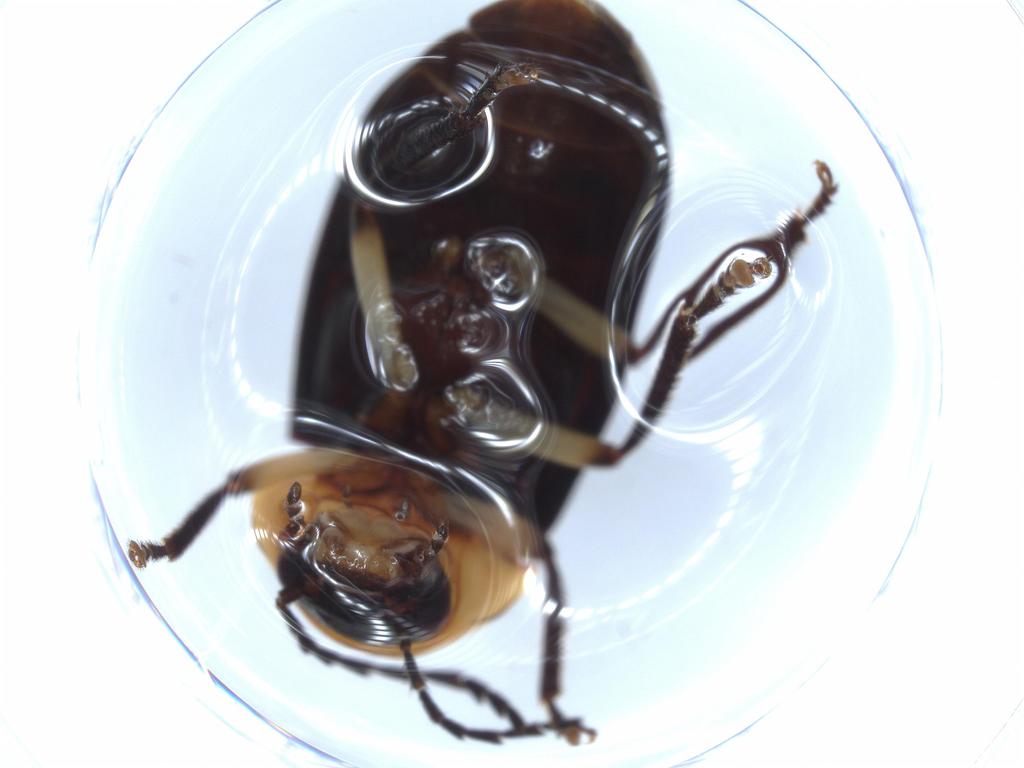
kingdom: Animalia
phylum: Arthropoda
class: Insecta
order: Coleoptera
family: Ptilodactylidae
